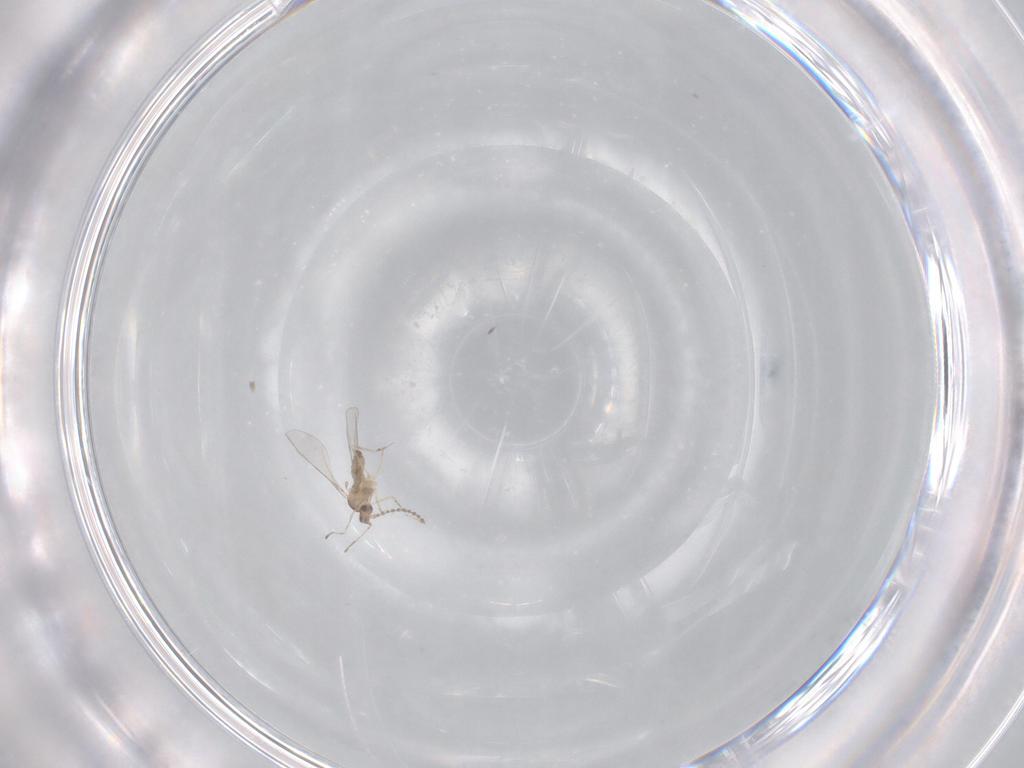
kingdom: Animalia
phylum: Arthropoda
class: Insecta
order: Diptera
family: Cecidomyiidae
